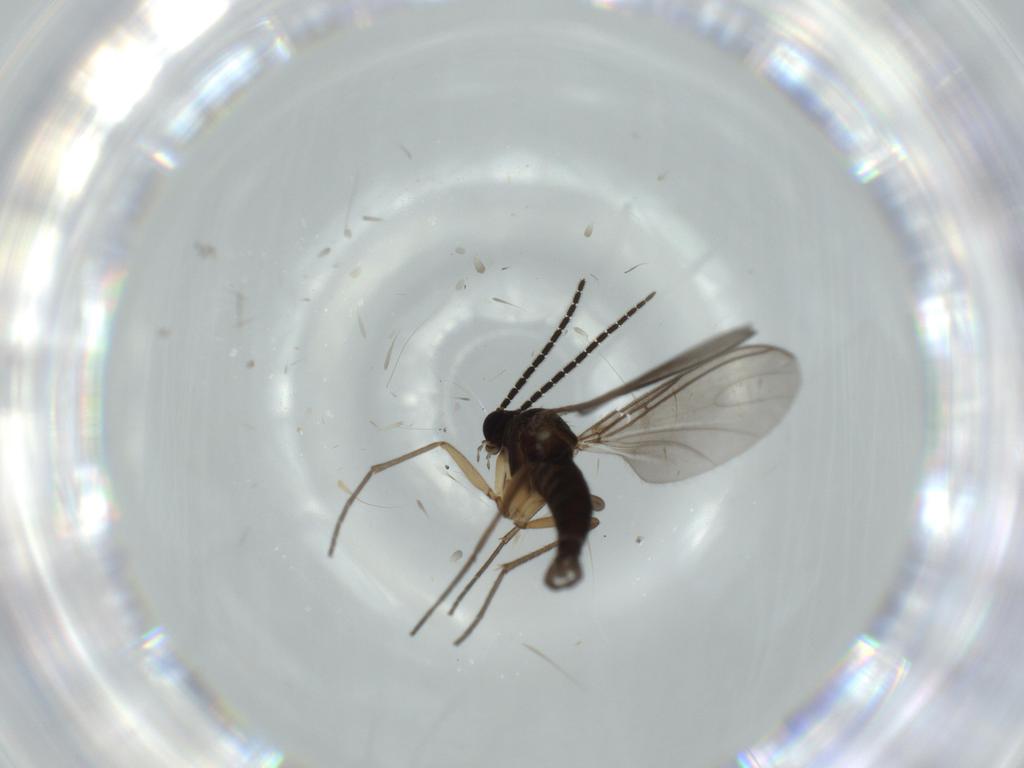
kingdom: Animalia
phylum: Arthropoda
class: Insecta
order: Diptera
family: Sciaridae
